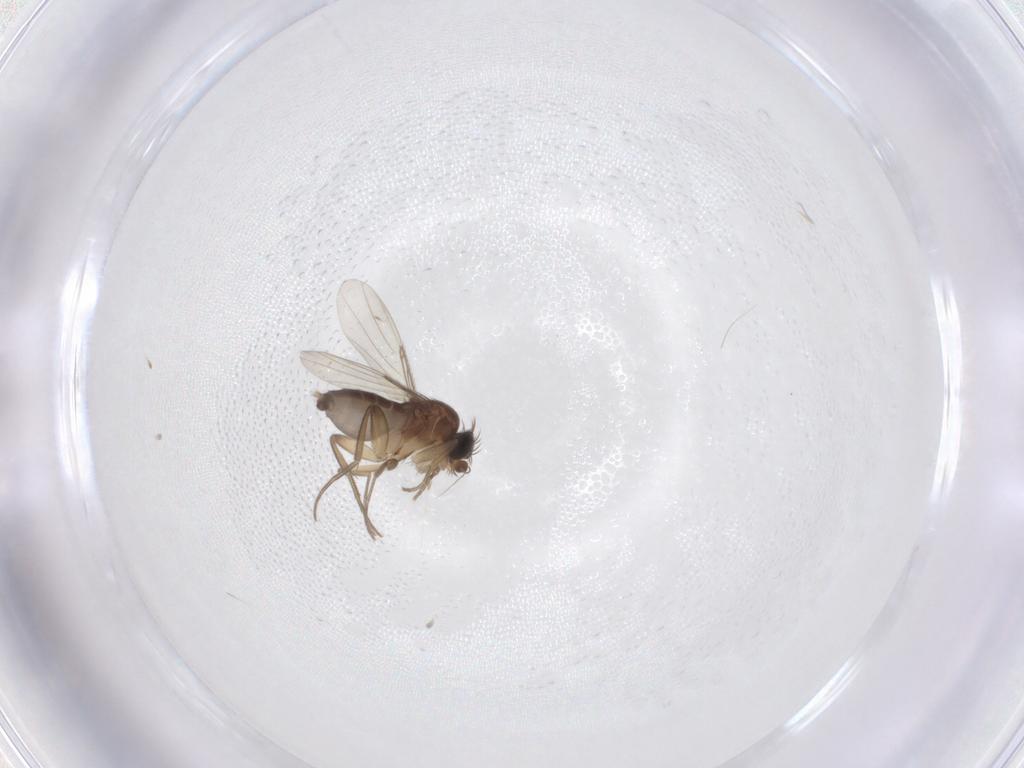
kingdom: Animalia
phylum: Arthropoda
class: Insecta
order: Diptera
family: Phoridae
